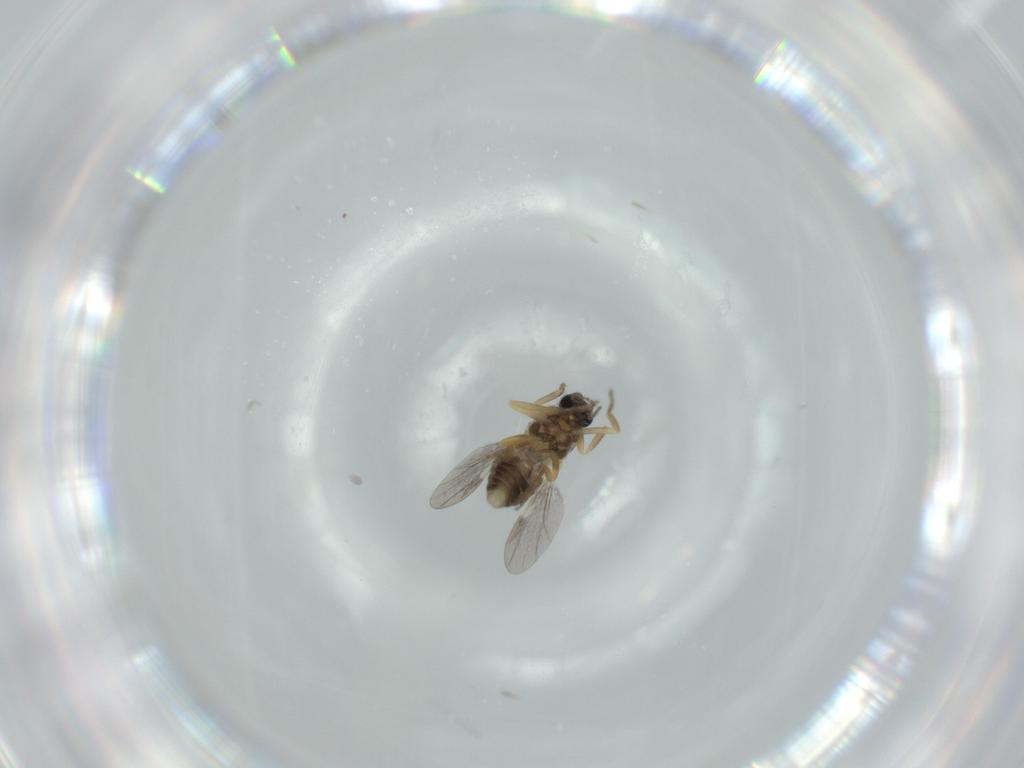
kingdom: Animalia
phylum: Arthropoda
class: Insecta
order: Diptera
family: Ceratopogonidae
